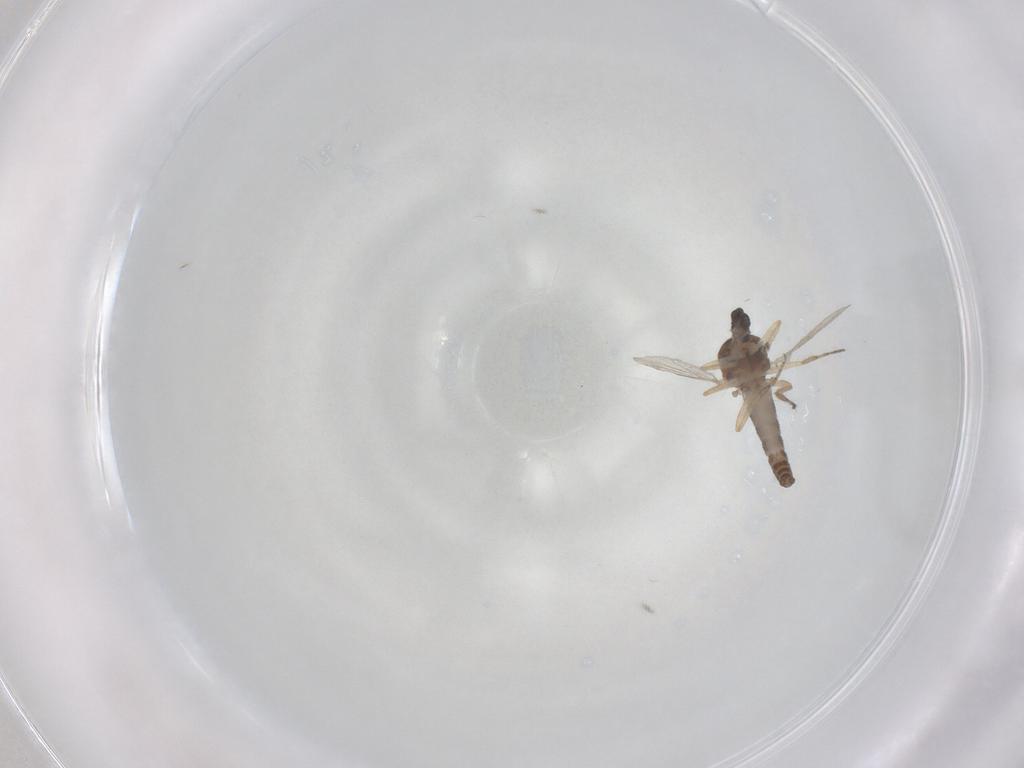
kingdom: Animalia
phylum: Arthropoda
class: Insecta
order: Diptera
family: Ceratopogonidae
